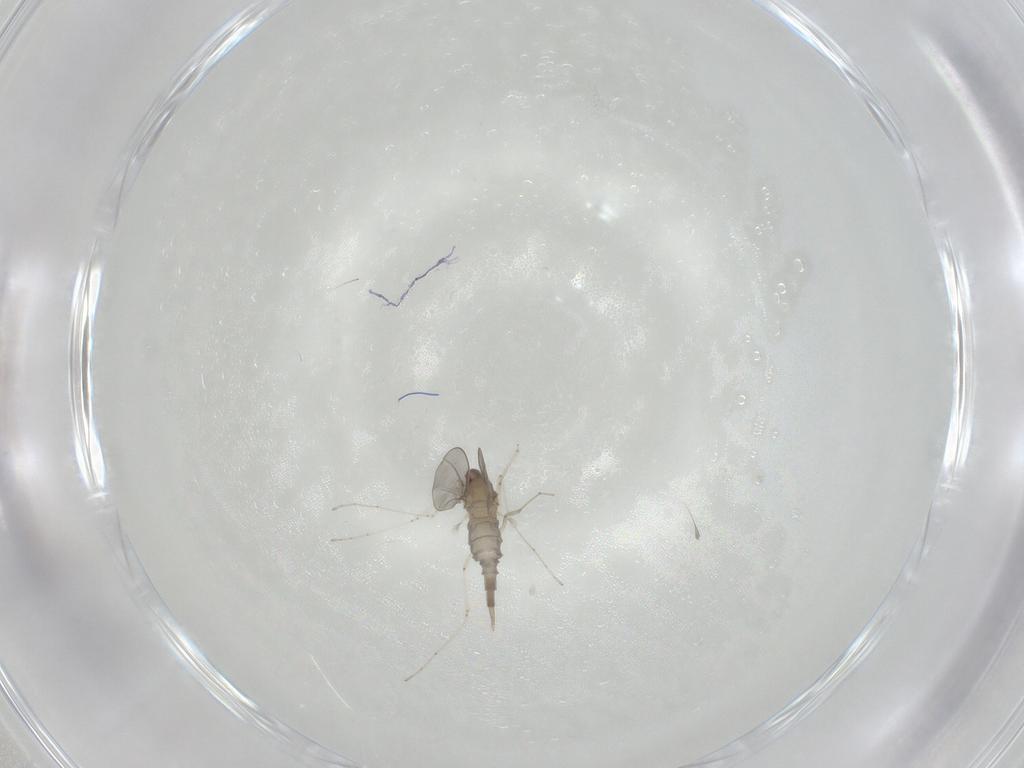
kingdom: Animalia
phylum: Arthropoda
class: Insecta
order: Diptera
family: Cecidomyiidae
